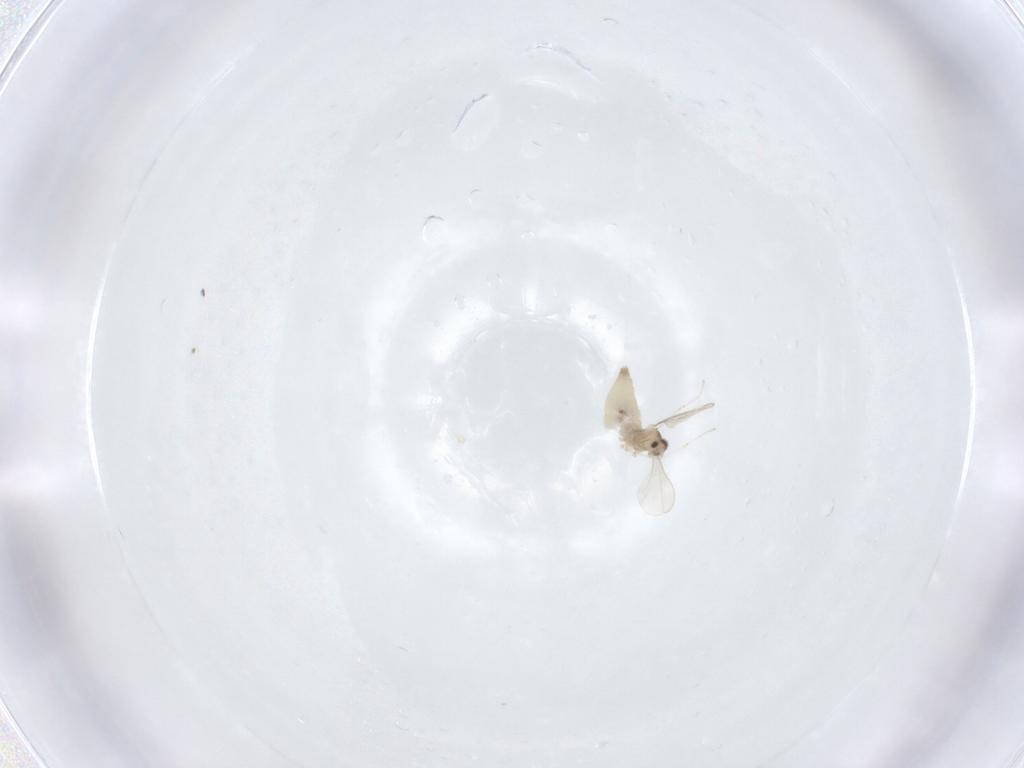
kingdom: Animalia
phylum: Arthropoda
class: Insecta
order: Diptera
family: Cecidomyiidae
